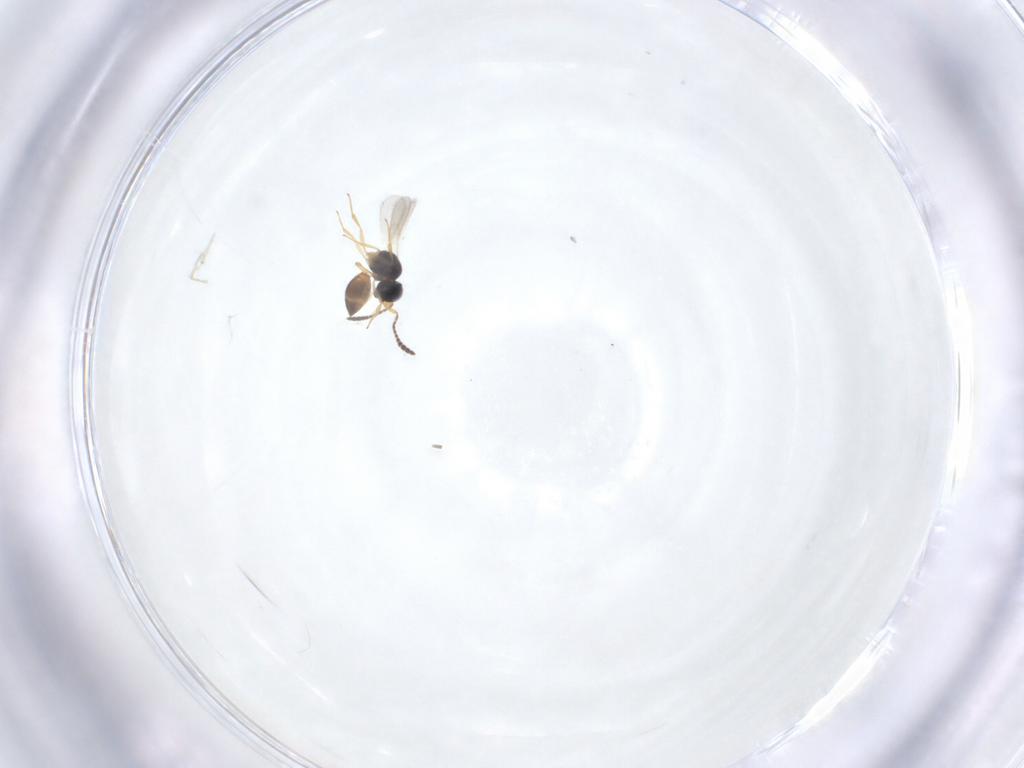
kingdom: Animalia
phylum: Arthropoda
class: Insecta
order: Hymenoptera
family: Scelionidae
